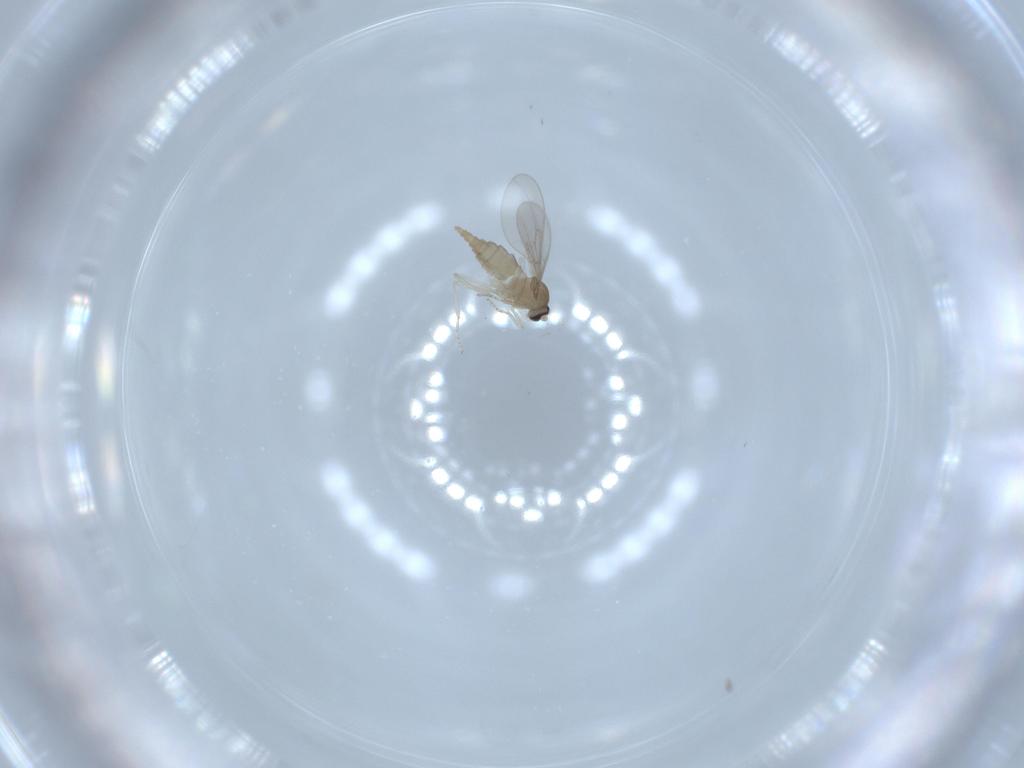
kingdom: Animalia
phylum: Arthropoda
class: Insecta
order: Diptera
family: Cecidomyiidae
